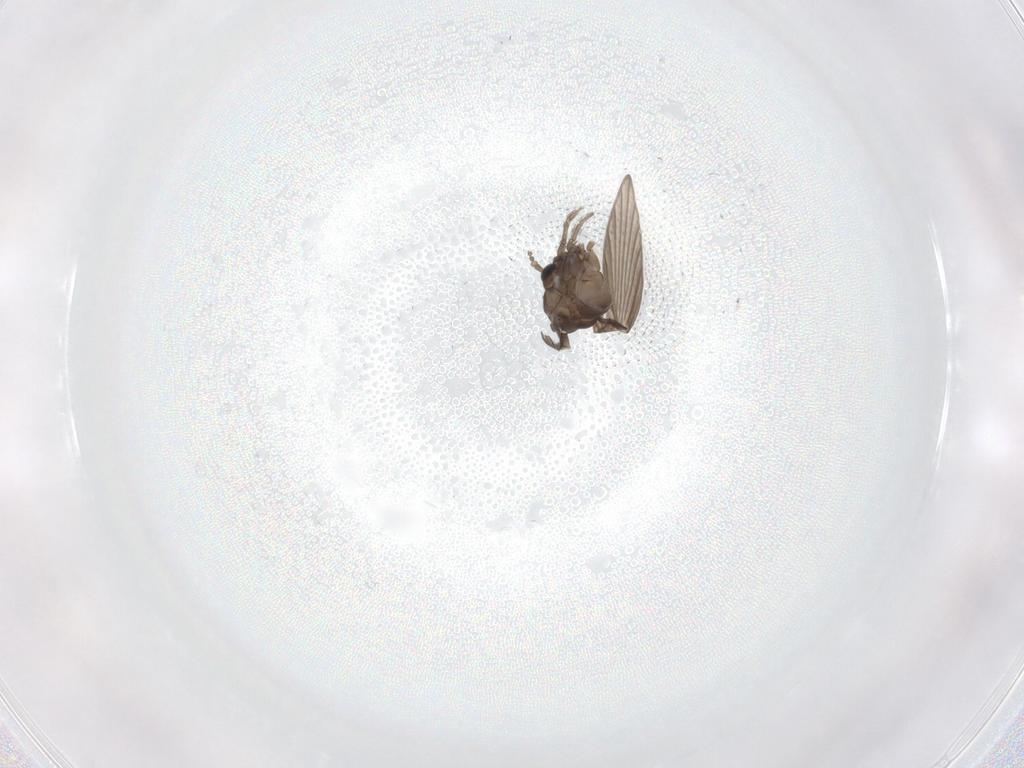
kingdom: Animalia
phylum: Arthropoda
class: Insecta
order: Diptera
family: Psychodidae
